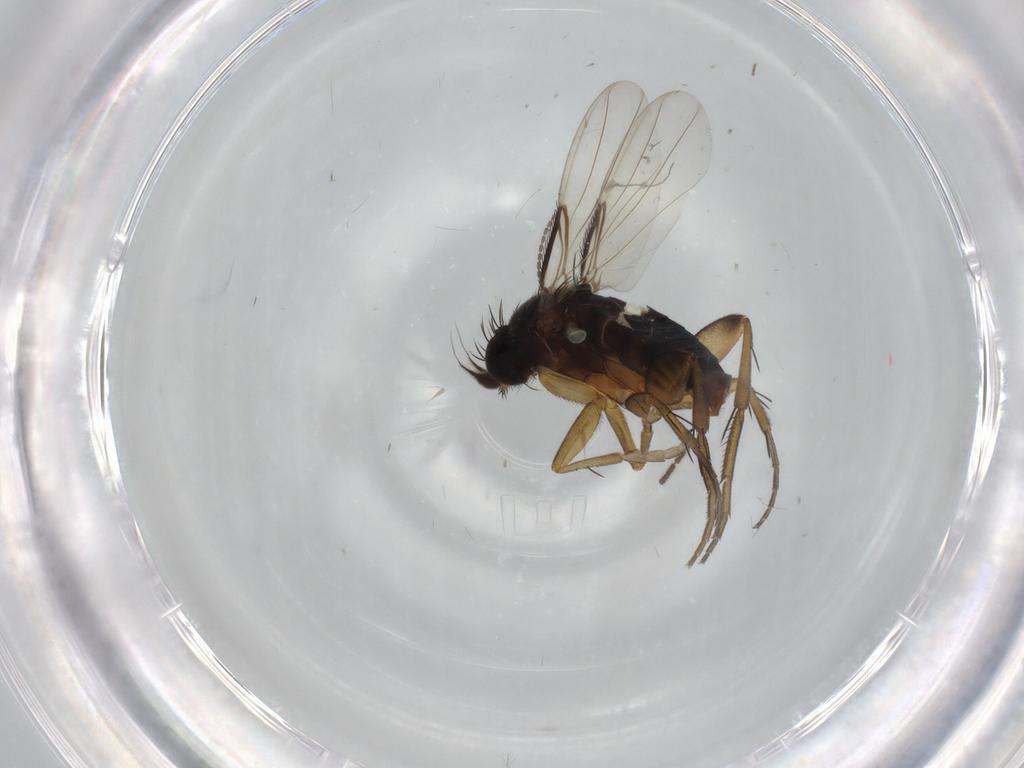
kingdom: Animalia
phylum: Arthropoda
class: Insecta
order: Diptera
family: Phoridae
